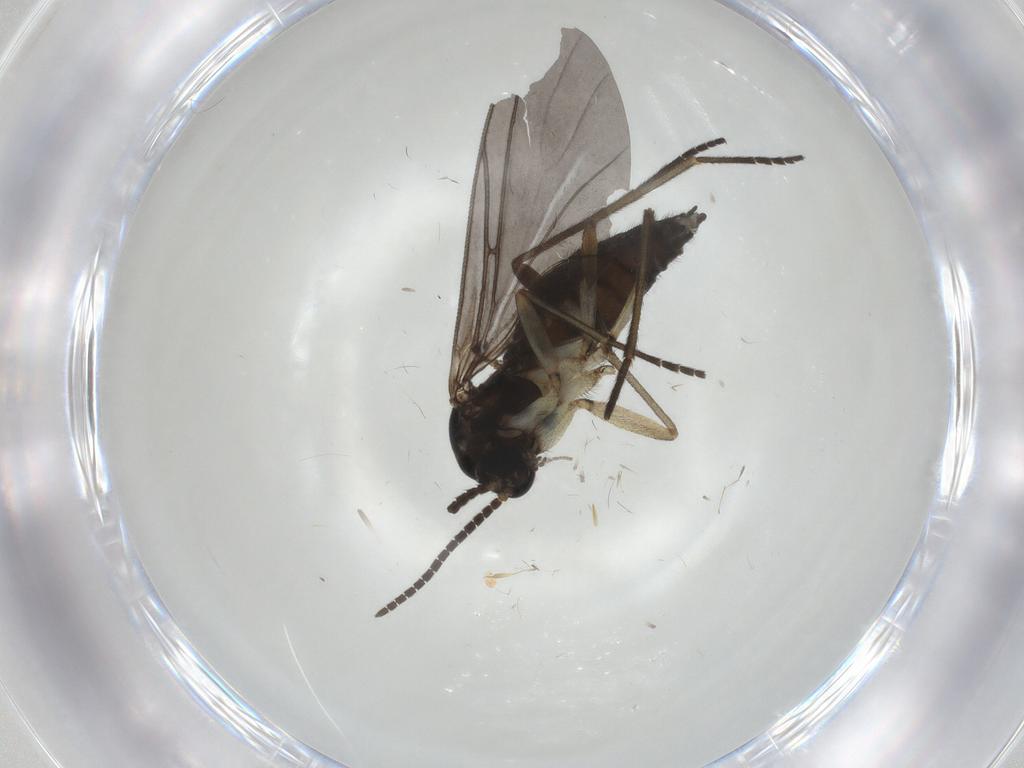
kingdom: Animalia
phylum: Arthropoda
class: Insecta
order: Diptera
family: Sciaridae
